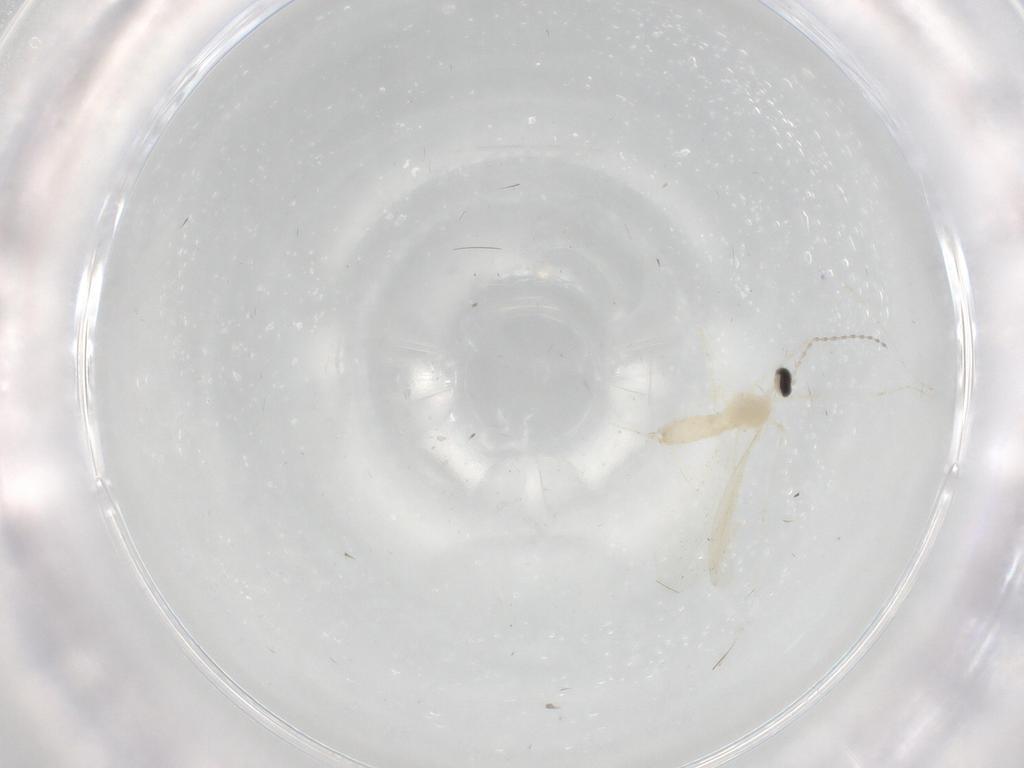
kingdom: Animalia
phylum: Arthropoda
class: Insecta
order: Diptera
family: Cecidomyiidae
